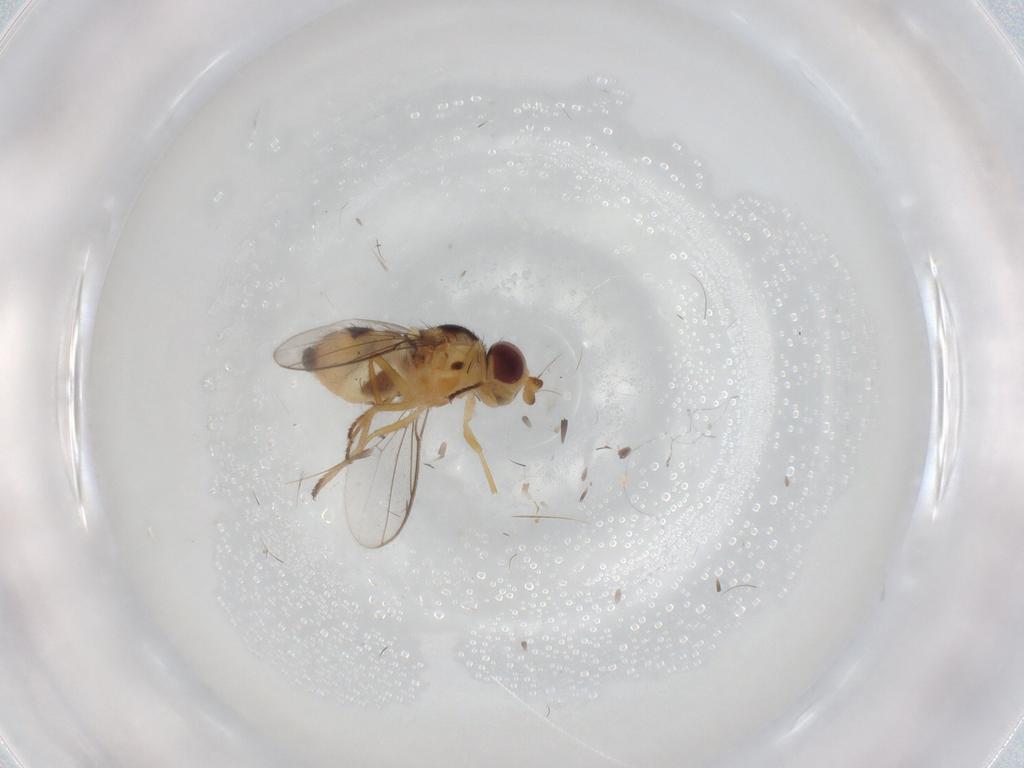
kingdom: Animalia
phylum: Arthropoda
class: Insecta
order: Diptera
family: Chloropidae
